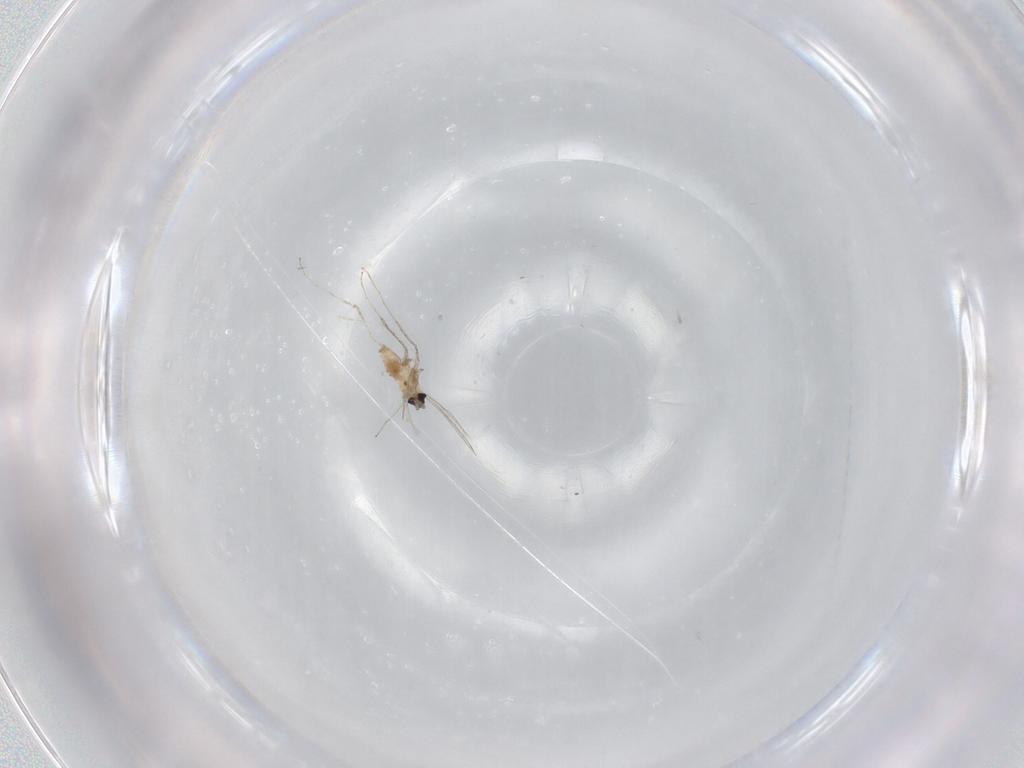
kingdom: Animalia
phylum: Arthropoda
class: Insecta
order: Diptera
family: Cecidomyiidae
